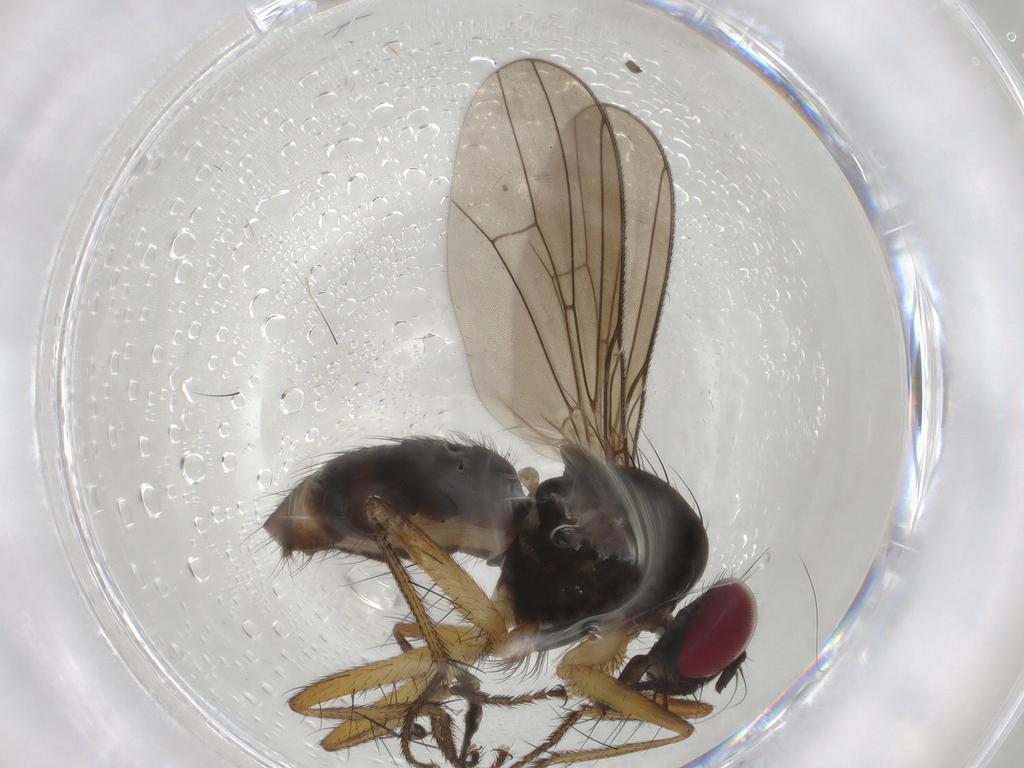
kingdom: Animalia
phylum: Arthropoda
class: Insecta
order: Diptera
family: Anthomyiidae
